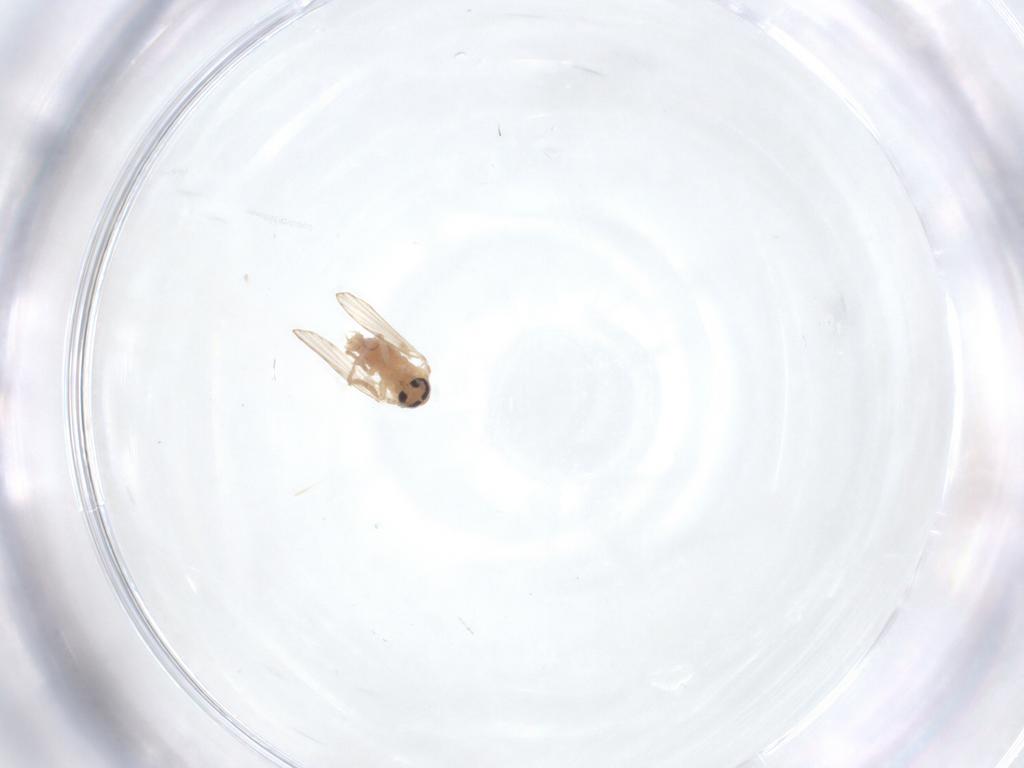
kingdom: Animalia
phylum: Arthropoda
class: Insecta
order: Diptera
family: Psychodidae
